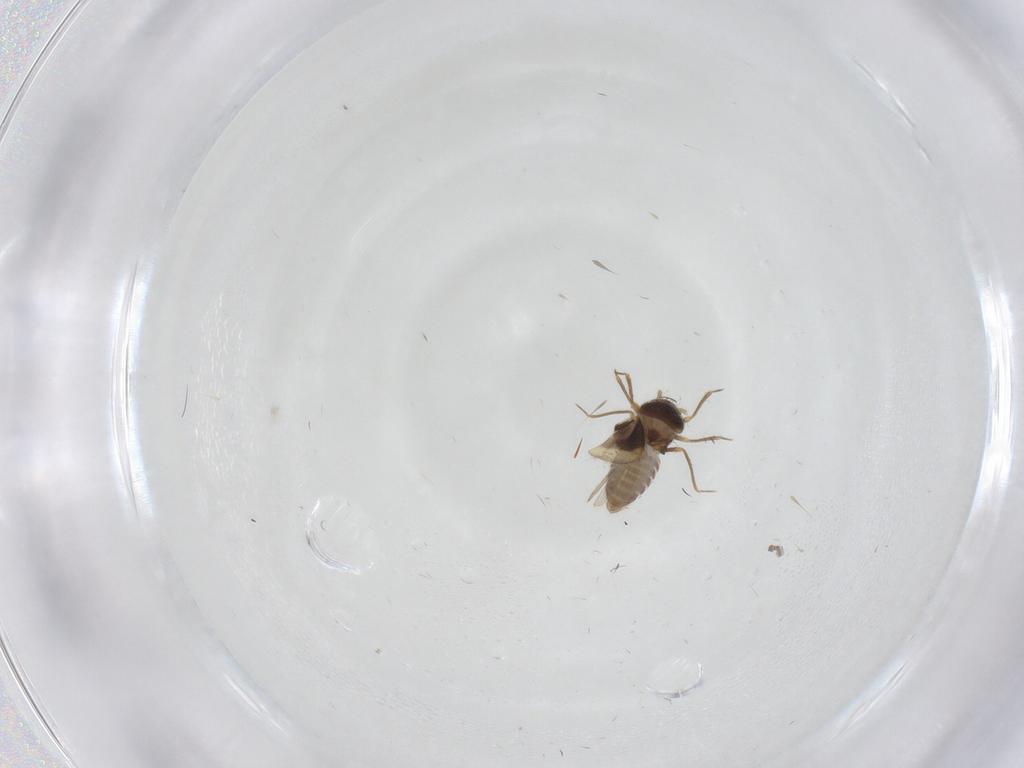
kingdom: Animalia
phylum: Arthropoda
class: Insecta
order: Hemiptera
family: Schizopteridae
